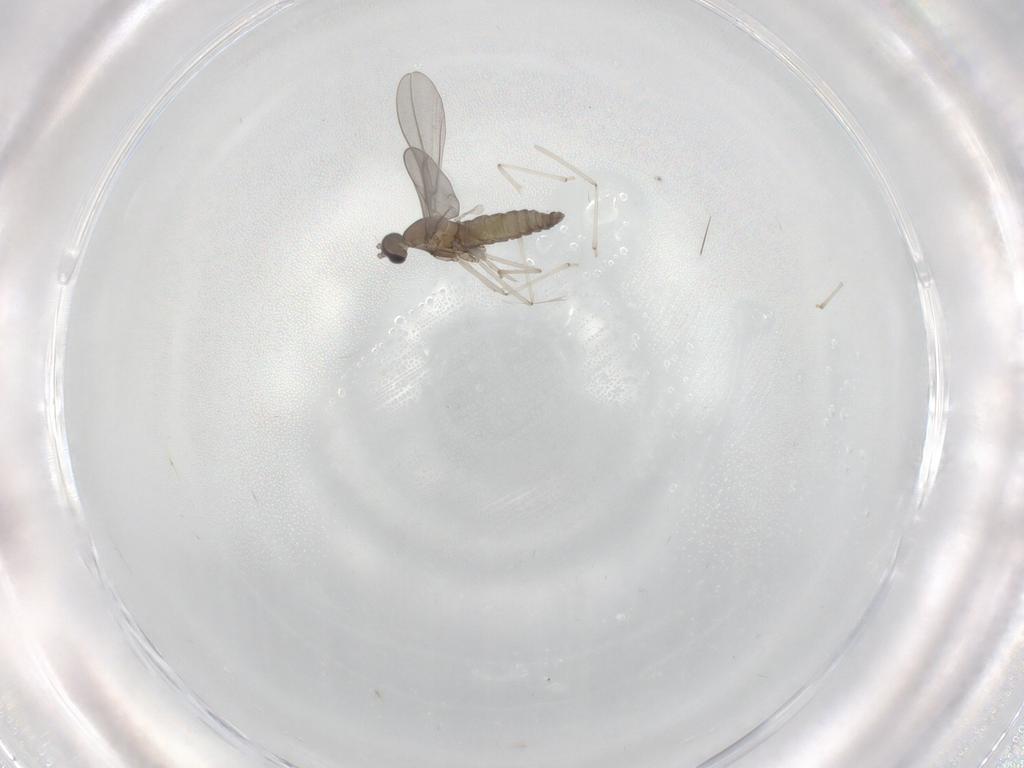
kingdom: Animalia
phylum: Arthropoda
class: Insecta
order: Diptera
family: Cecidomyiidae
